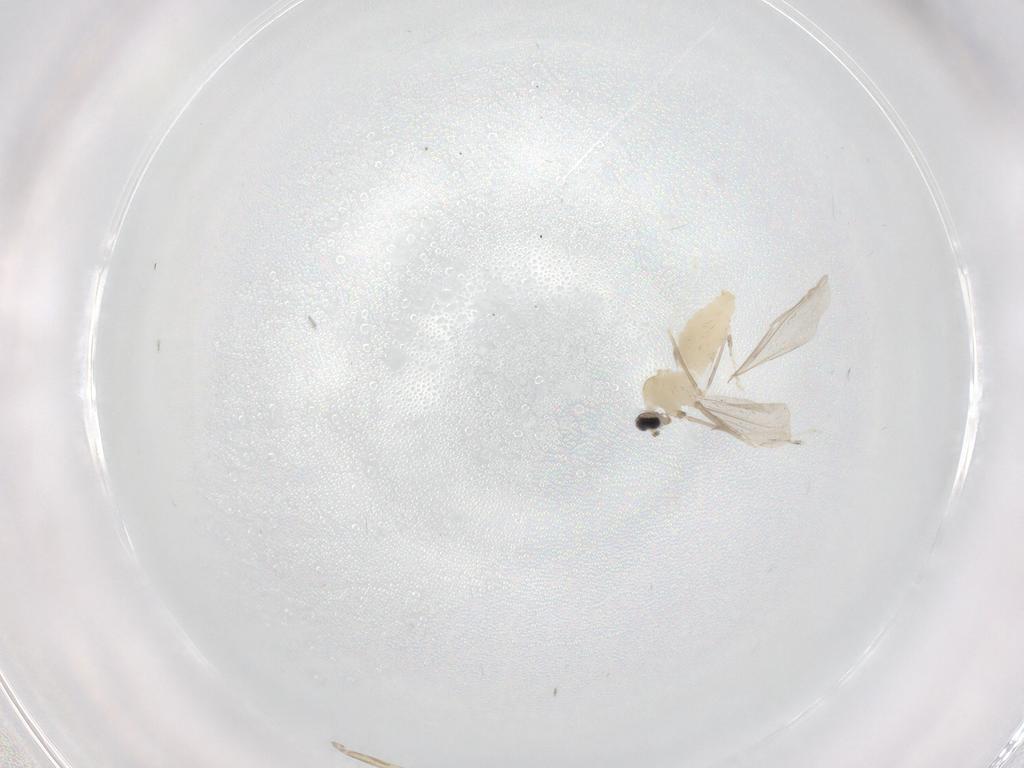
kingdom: Animalia
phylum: Arthropoda
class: Insecta
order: Diptera
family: Cecidomyiidae
